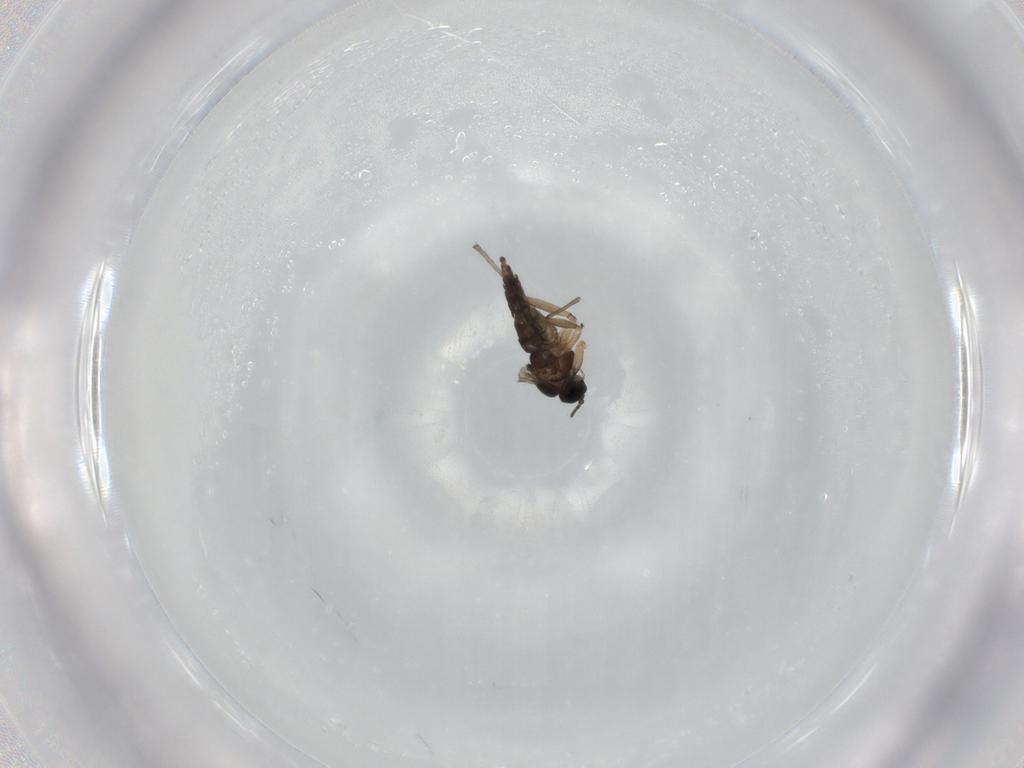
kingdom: Animalia
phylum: Arthropoda
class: Insecta
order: Diptera
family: Sciaridae
